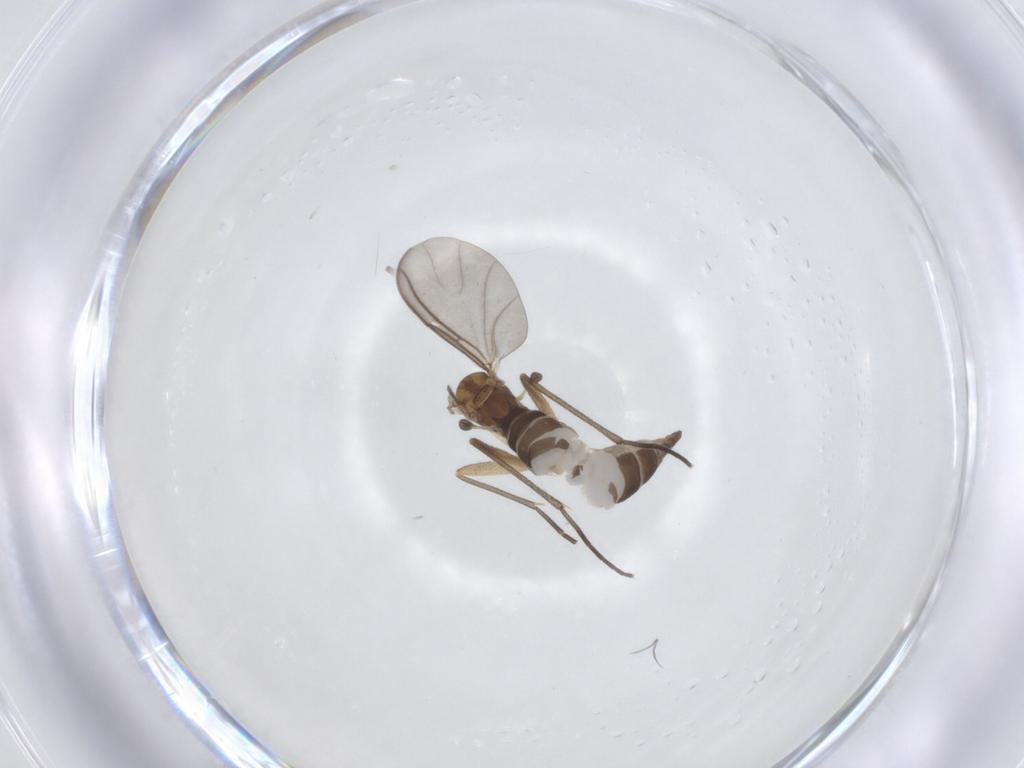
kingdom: Animalia
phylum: Arthropoda
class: Insecta
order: Diptera
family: Sciaridae
